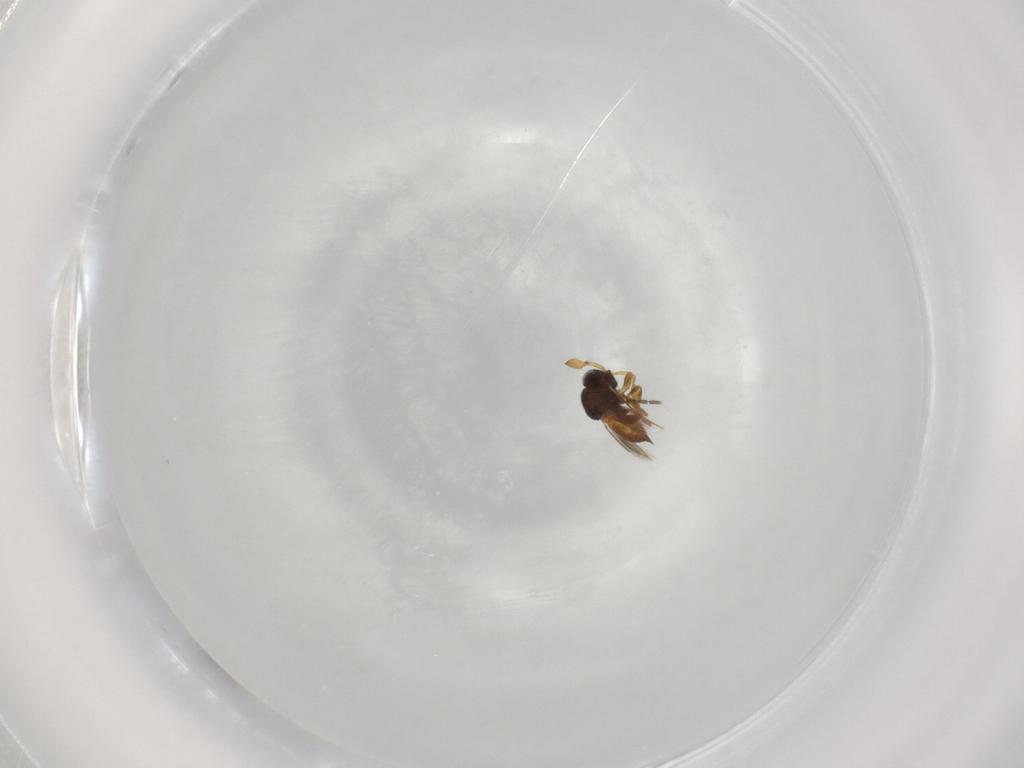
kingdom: Animalia
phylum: Arthropoda
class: Insecta
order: Hymenoptera
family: Scelionidae
